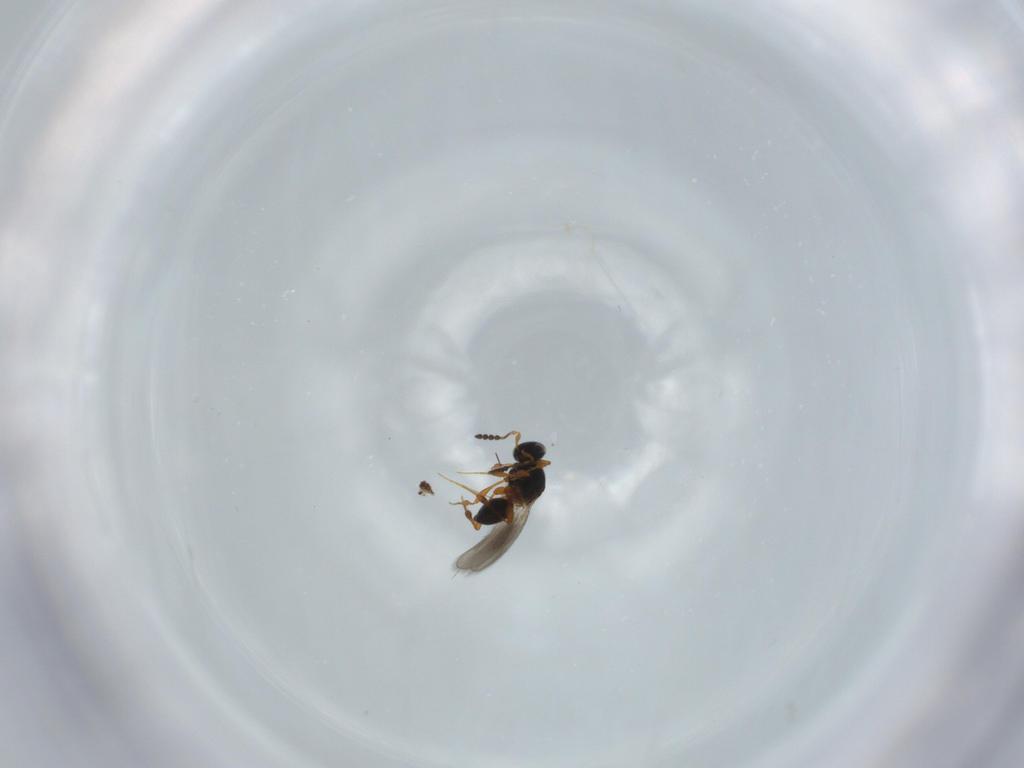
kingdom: Animalia
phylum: Arthropoda
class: Insecta
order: Hymenoptera
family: Platygastridae
